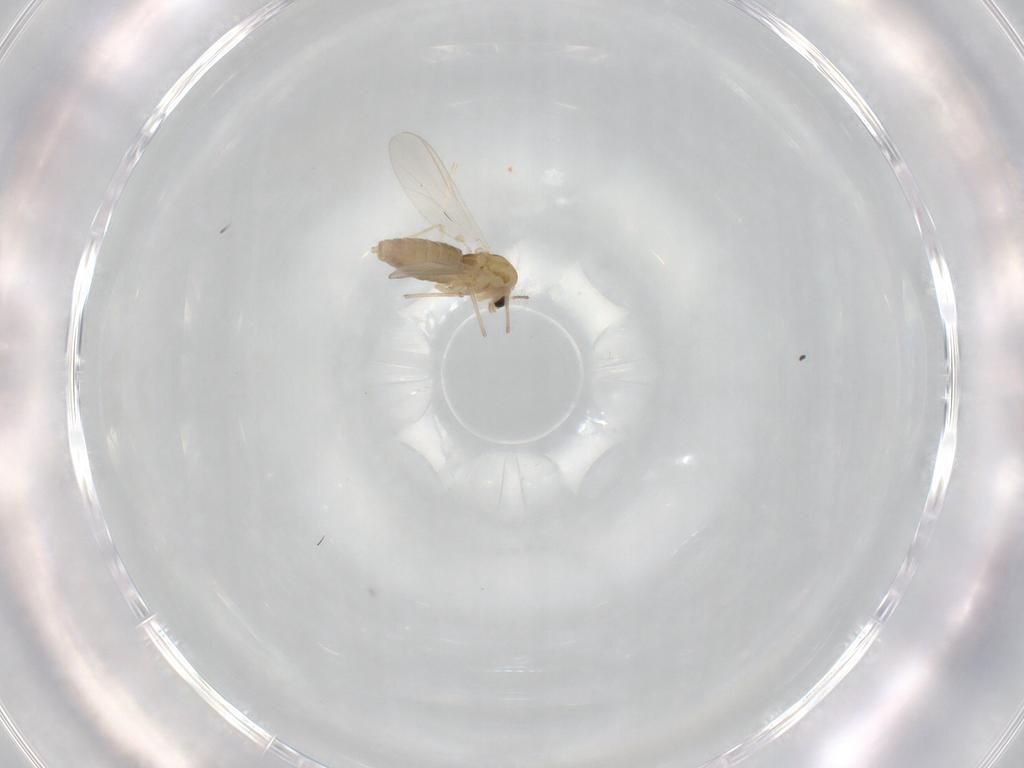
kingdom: Animalia
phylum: Arthropoda
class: Insecta
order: Diptera
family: Chironomidae
